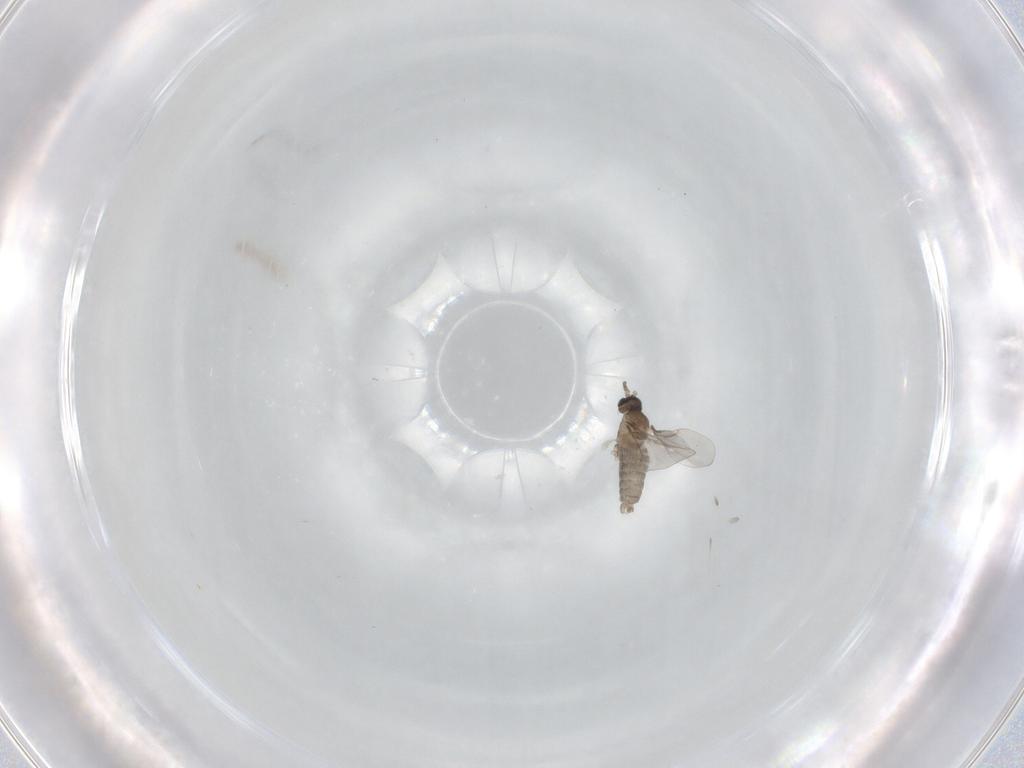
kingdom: Animalia
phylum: Arthropoda
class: Insecta
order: Diptera
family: Cecidomyiidae
